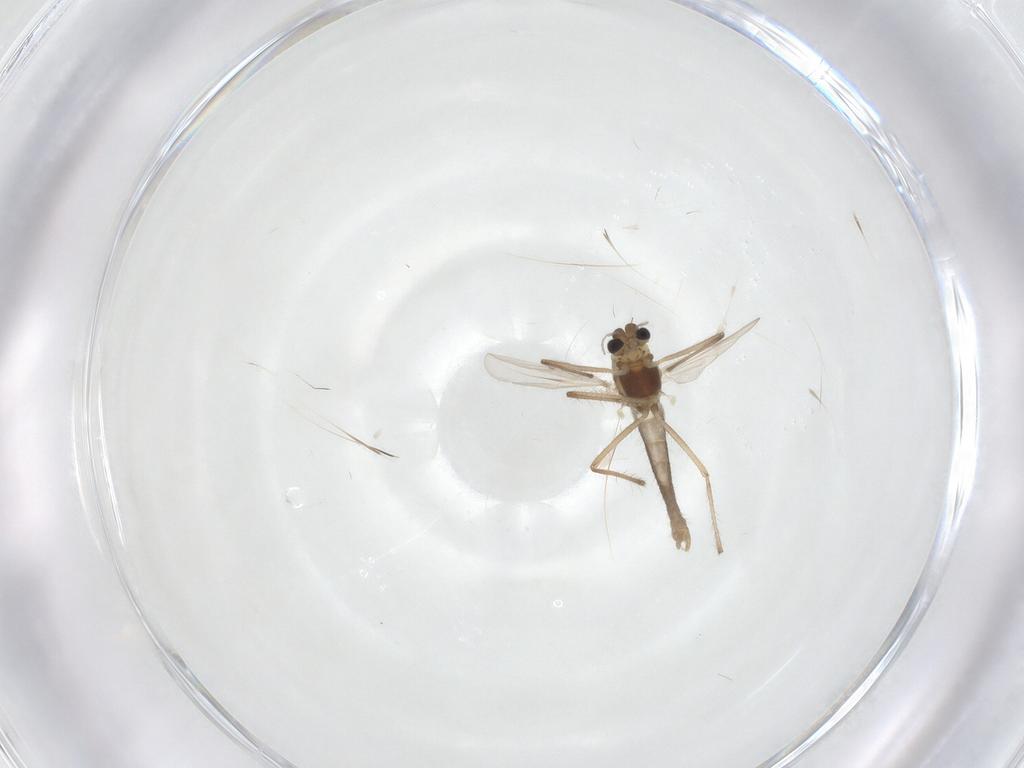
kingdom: Animalia
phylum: Arthropoda
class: Insecta
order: Diptera
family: Chironomidae
